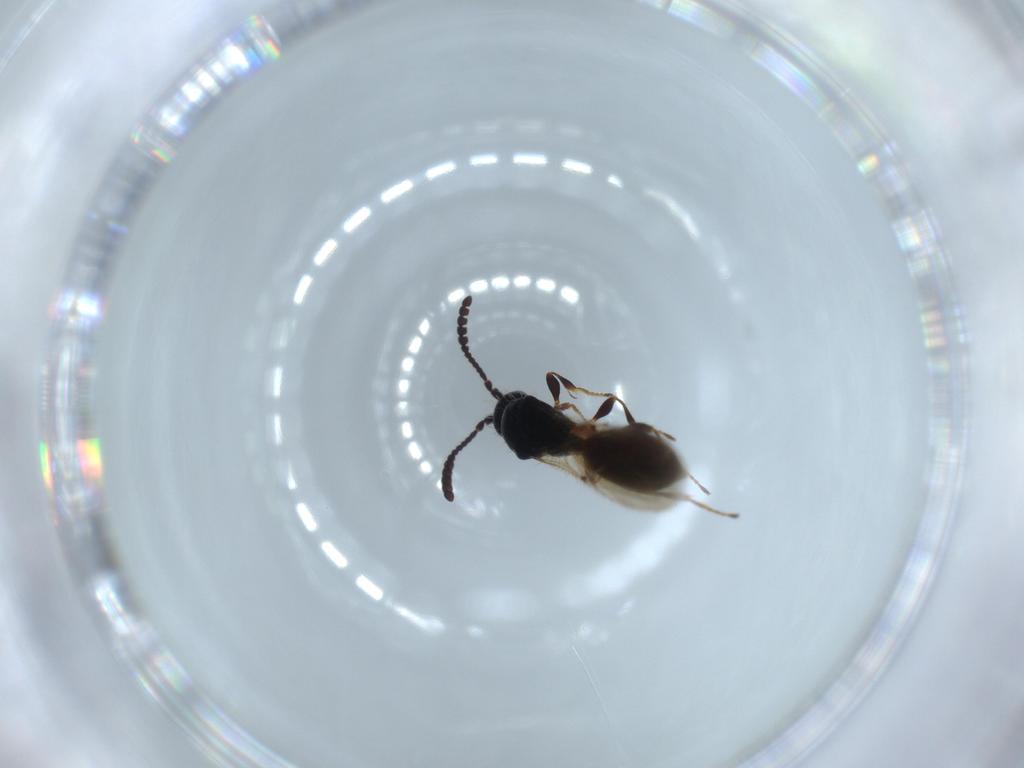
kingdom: Animalia
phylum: Arthropoda
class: Insecta
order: Hymenoptera
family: Diapriidae
